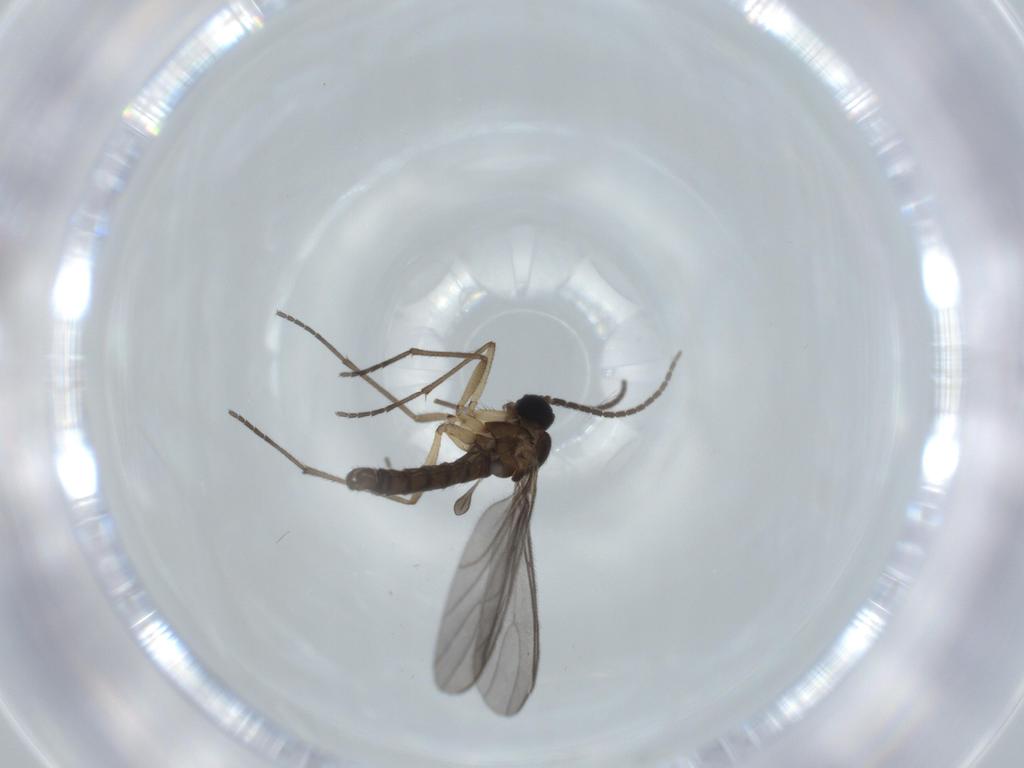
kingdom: Animalia
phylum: Arthropoda
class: Insecta
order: Diptera
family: Sciaridae
